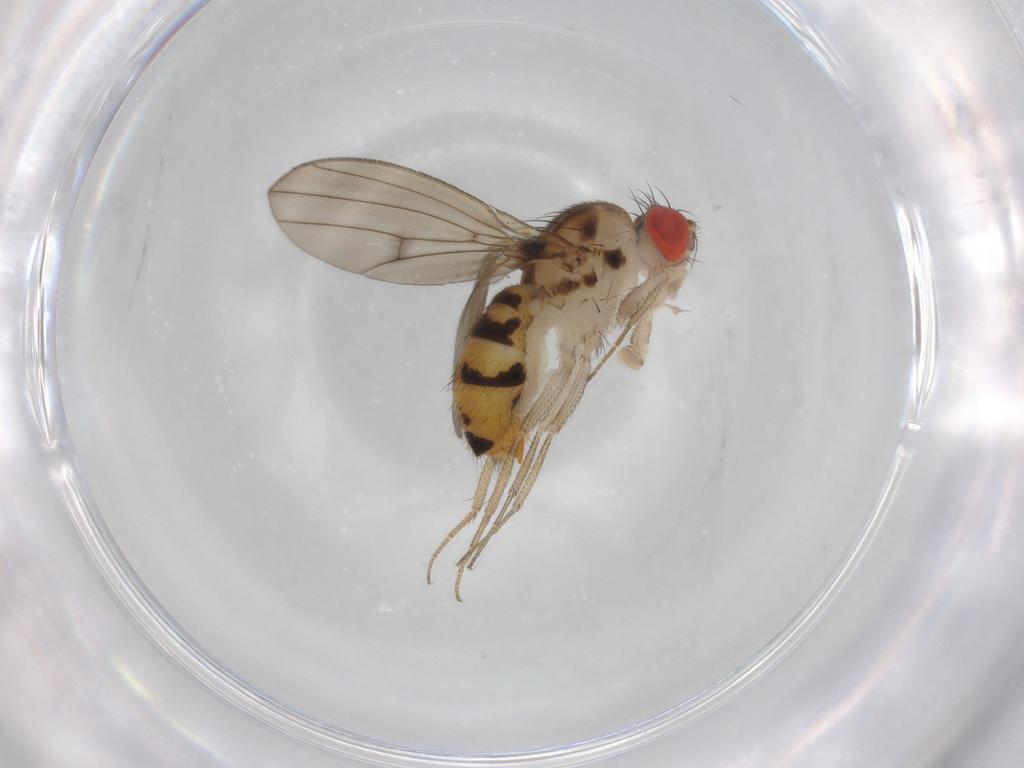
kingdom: Animalia
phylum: Arthropoda
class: Insecta
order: Diptera
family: Drosophilidae
